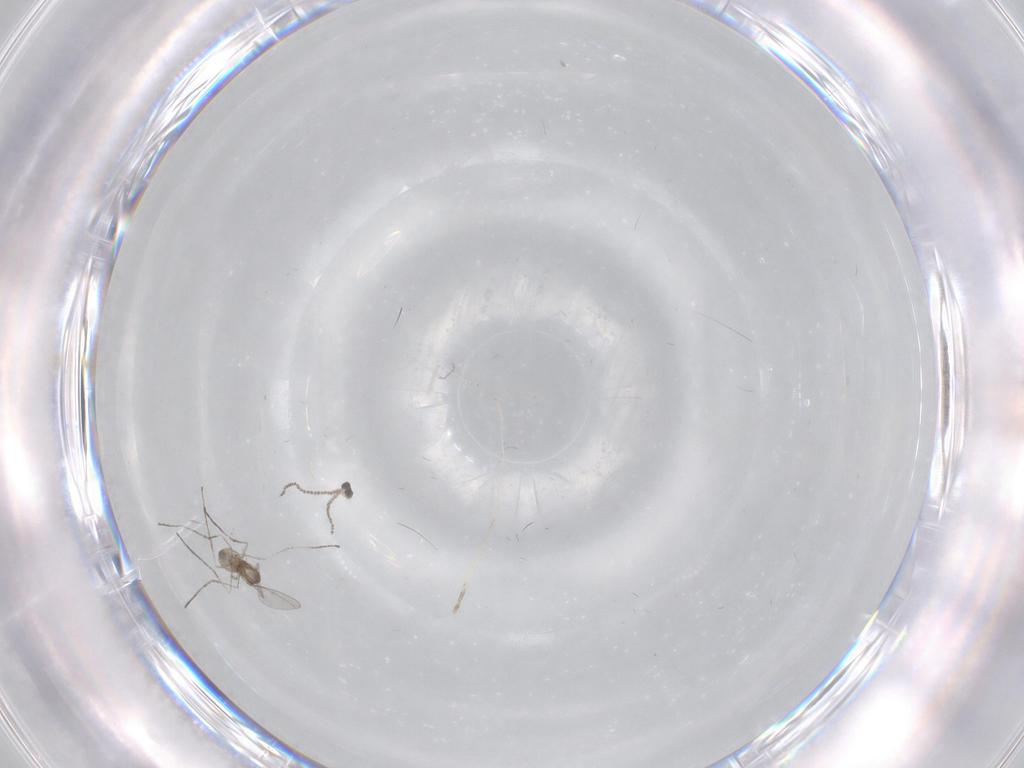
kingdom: Animalia
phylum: Arthropoda
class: Insecta
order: Diptera
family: Cecidomyiidae
